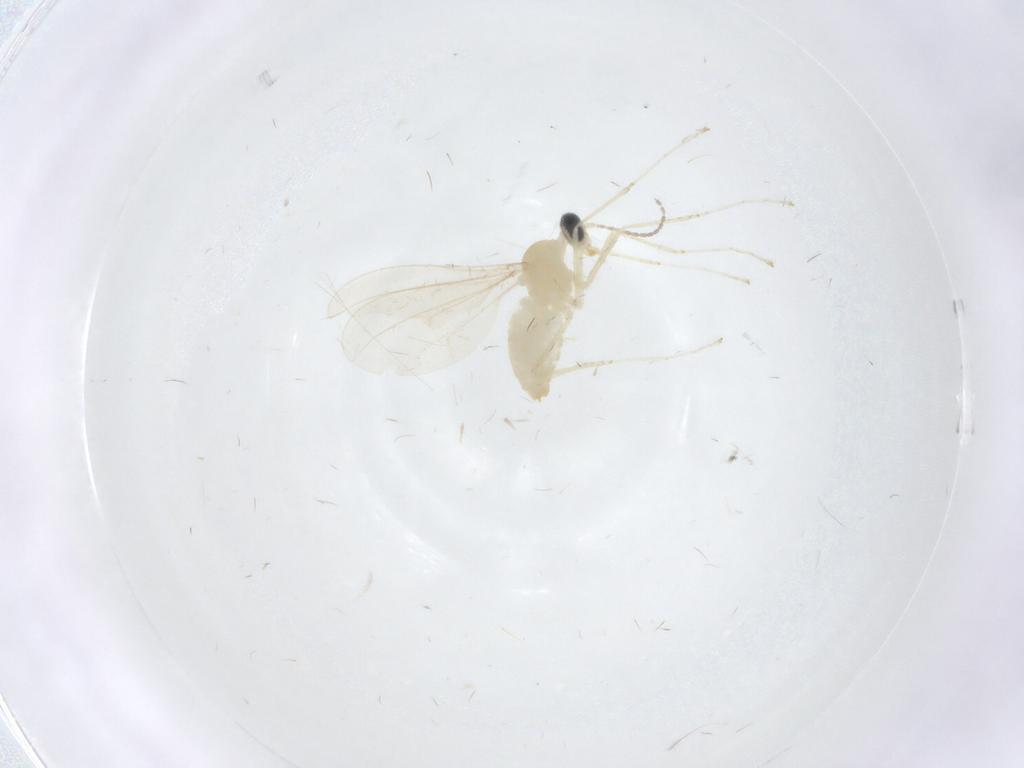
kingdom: Animalia
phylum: Arthropoda
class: Insecta
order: Diptera
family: Cecidomyiidae
